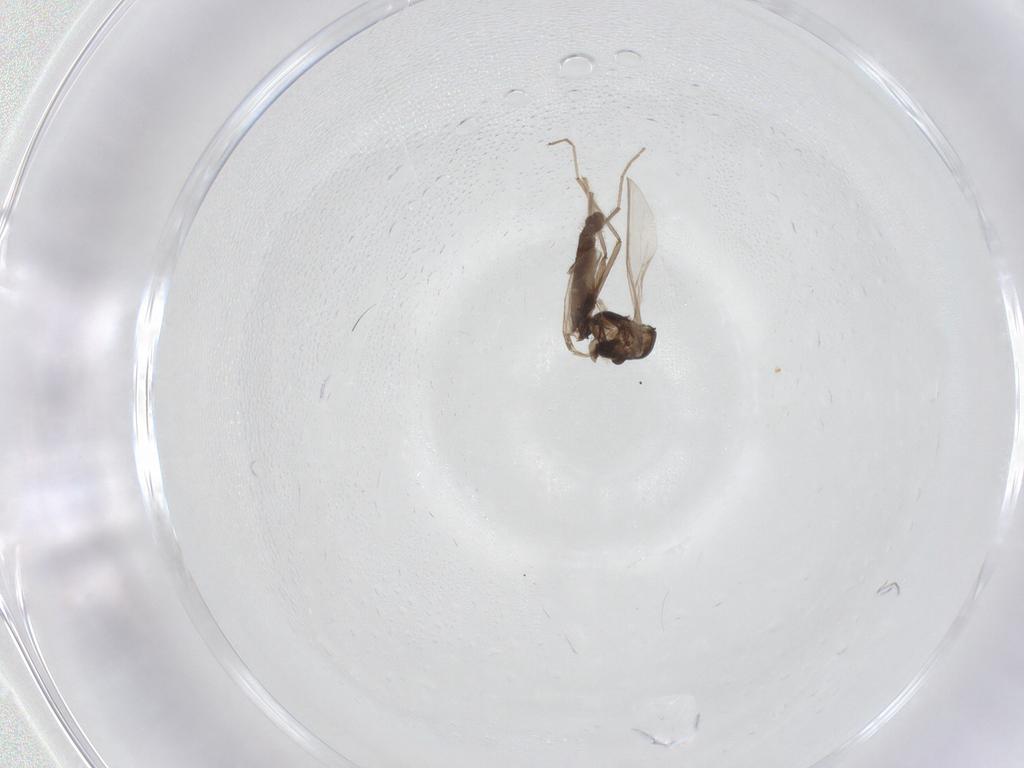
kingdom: Animalia
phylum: Arthropoda
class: Insecta
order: Diptera
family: Chironomidae
